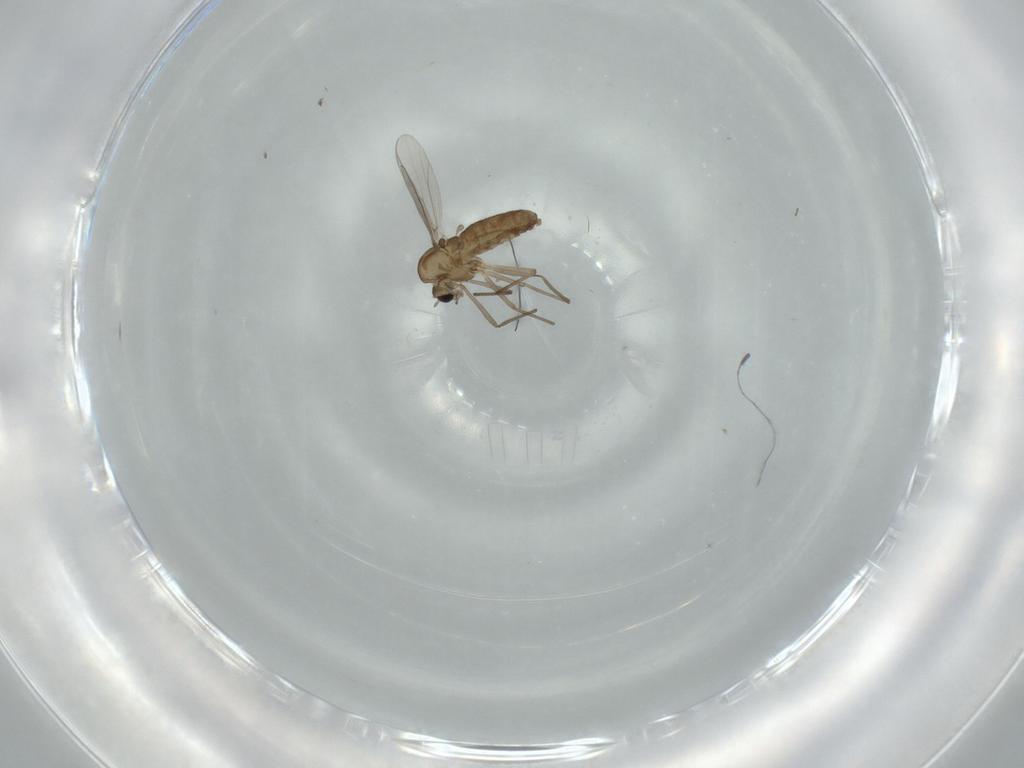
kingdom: Animalia
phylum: Arthropoda
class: Insecta
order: Diptera
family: Chironomidae
